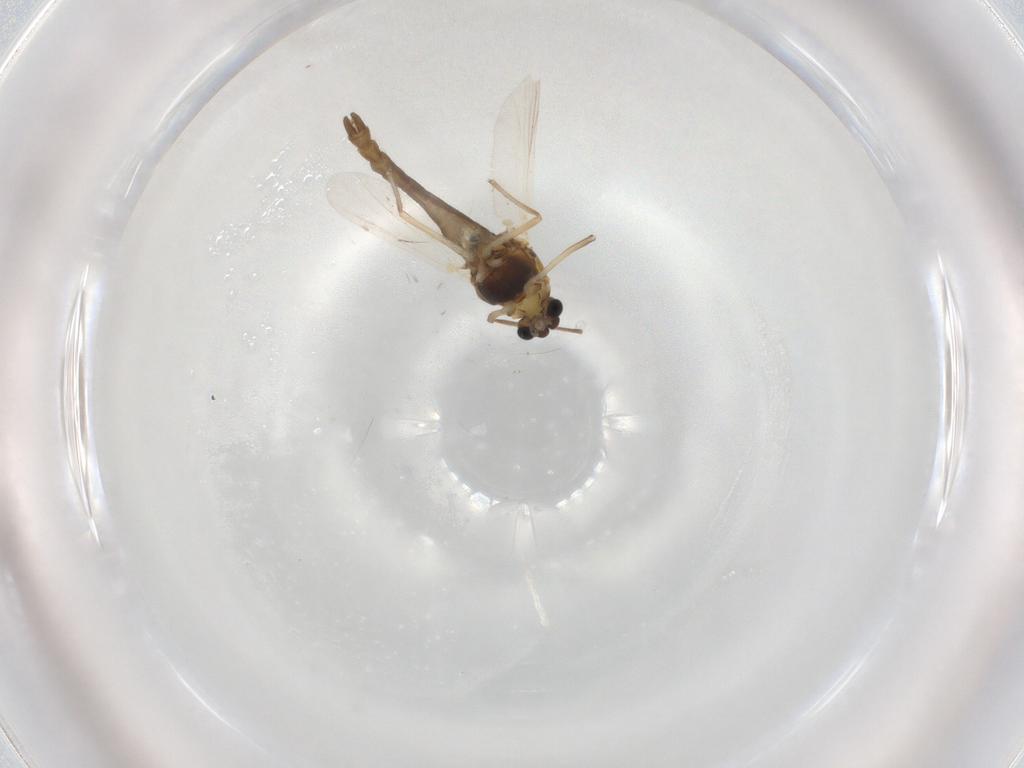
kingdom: Animalia
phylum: Arthropoda
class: Insecta
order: Diptera
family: Chironomidae
